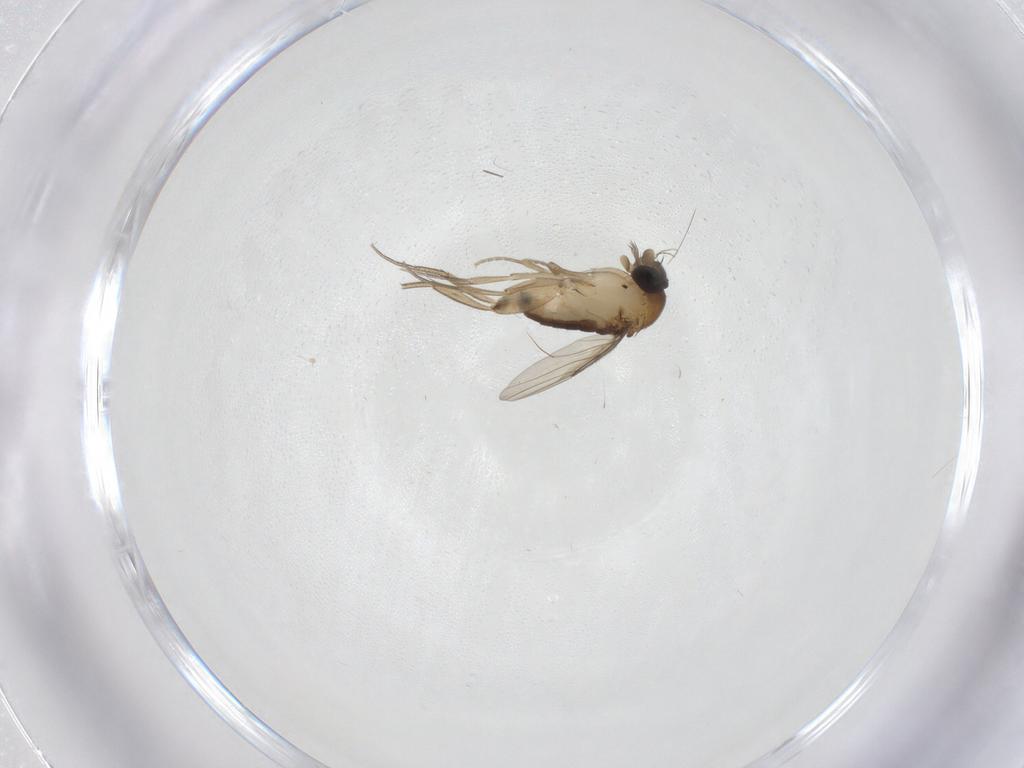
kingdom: Animalia
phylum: Arthropoda
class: Insecta
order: Diptera
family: Phoridae
